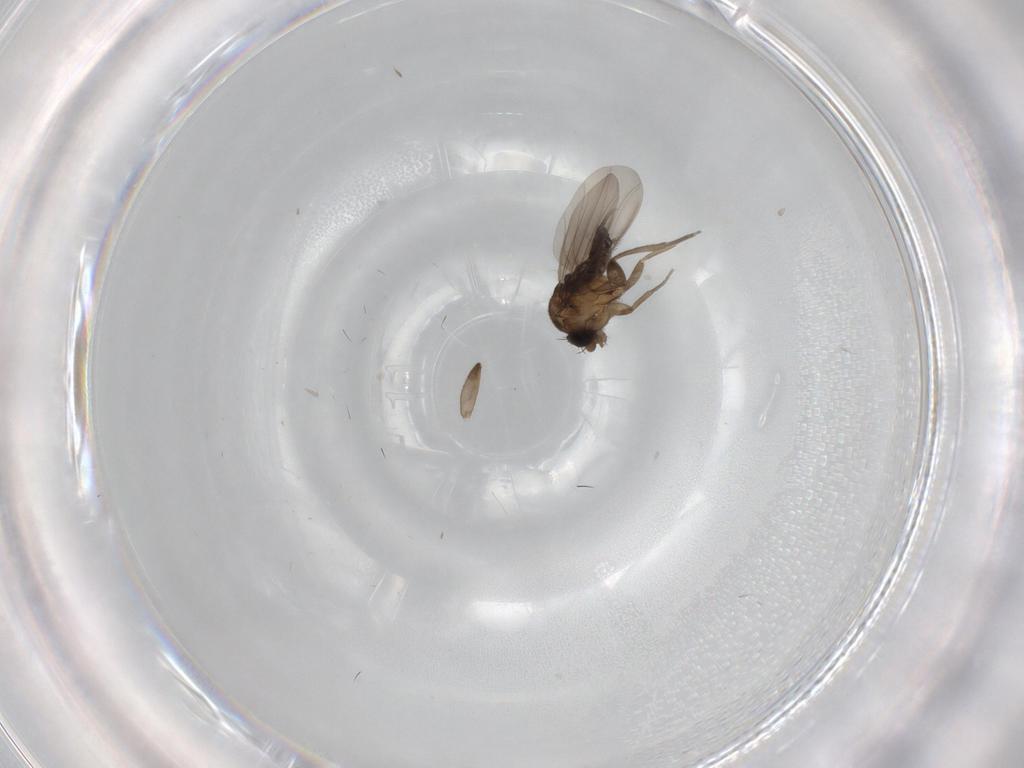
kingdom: Animalia
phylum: Arthropoda
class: Insecta
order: Diptera
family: Phoridae
